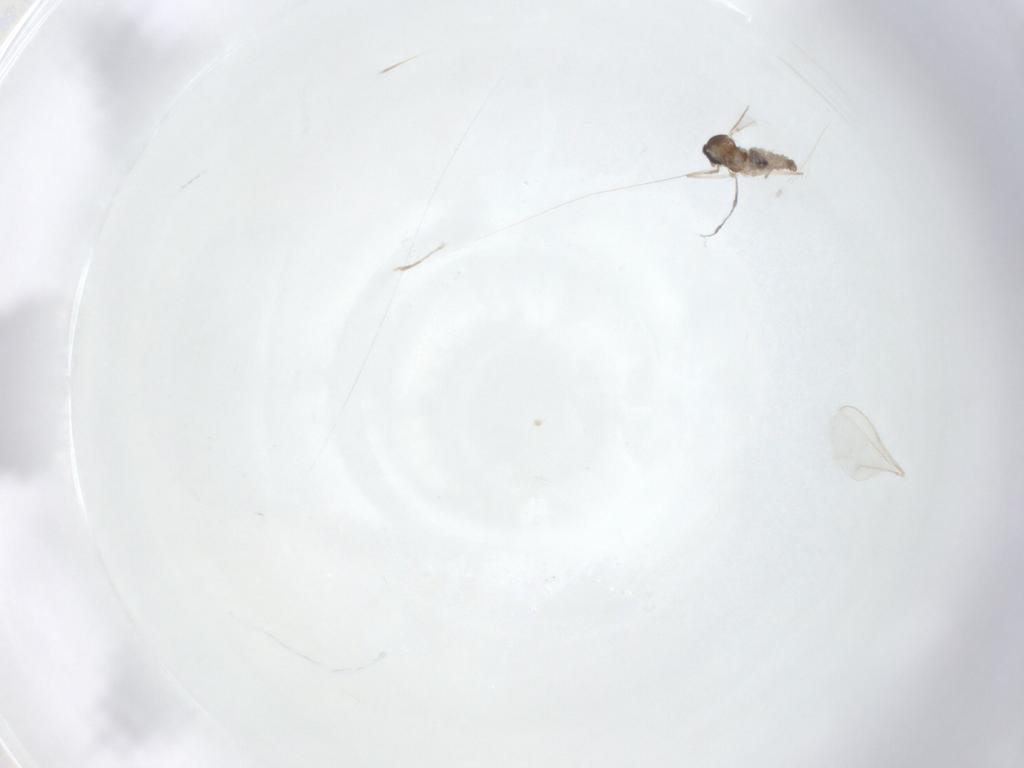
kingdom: Animalia
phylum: Arthropoda
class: Insecta
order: Diptera
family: Cecidomyiidae
